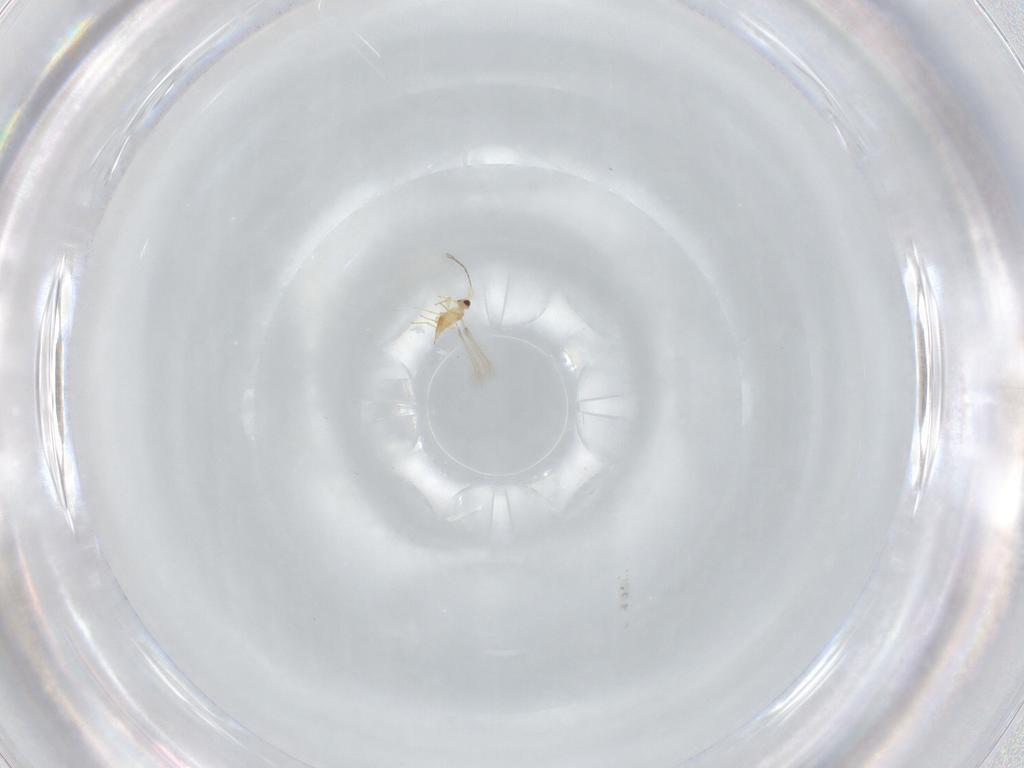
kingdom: Animalia
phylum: Arthropoda
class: Insecta
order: Hymenoptera
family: Mymaridae
